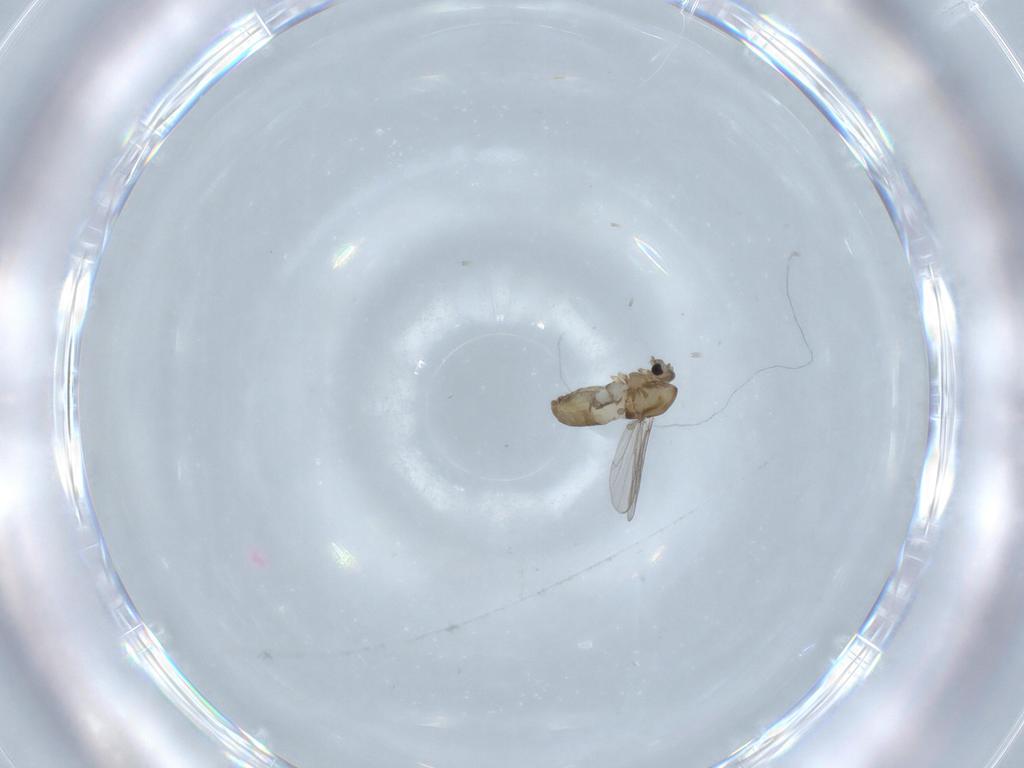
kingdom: Animalia
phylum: Arthropoda
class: Insecta
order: Diptera
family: Chironomidae
